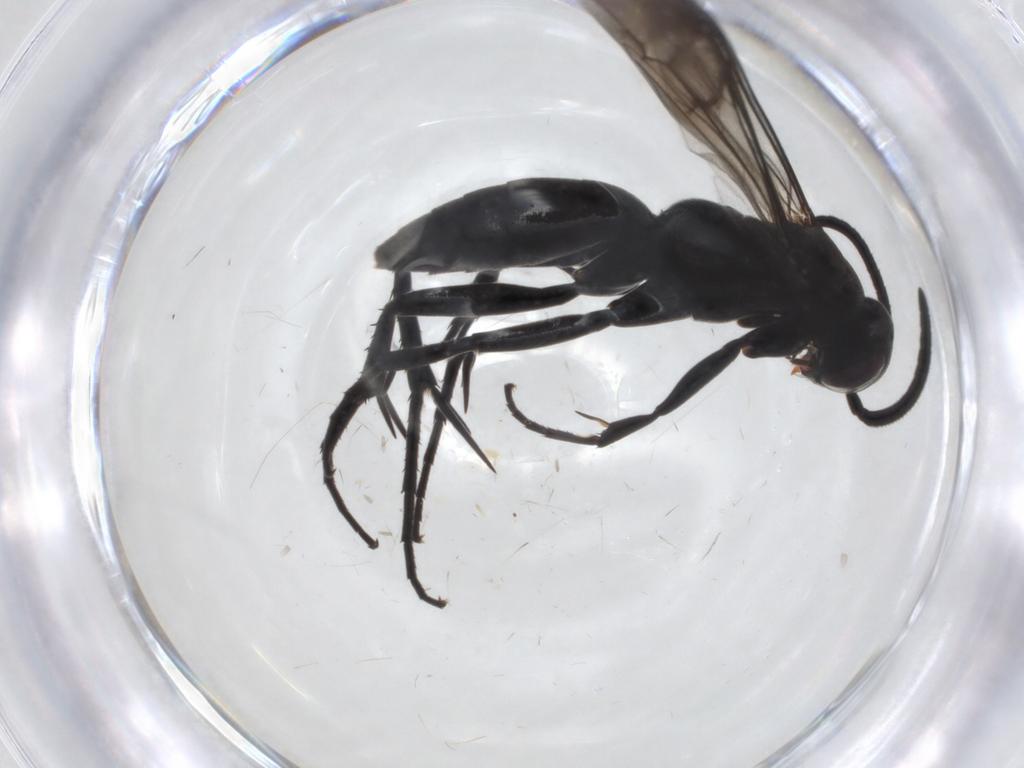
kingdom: Animalia
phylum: Arthropoda
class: Insecta
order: Hymenoptera
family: Pompilidae
